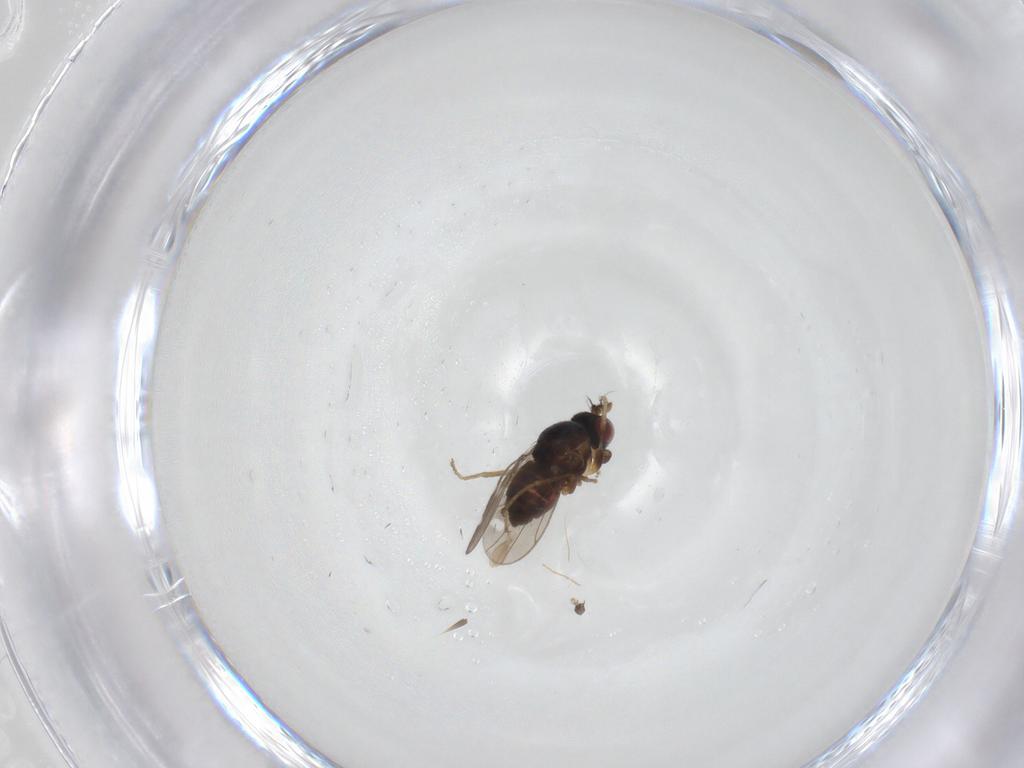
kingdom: Animalia
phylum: Arthropoda
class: Insecta
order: Diptera
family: Ephydridae
